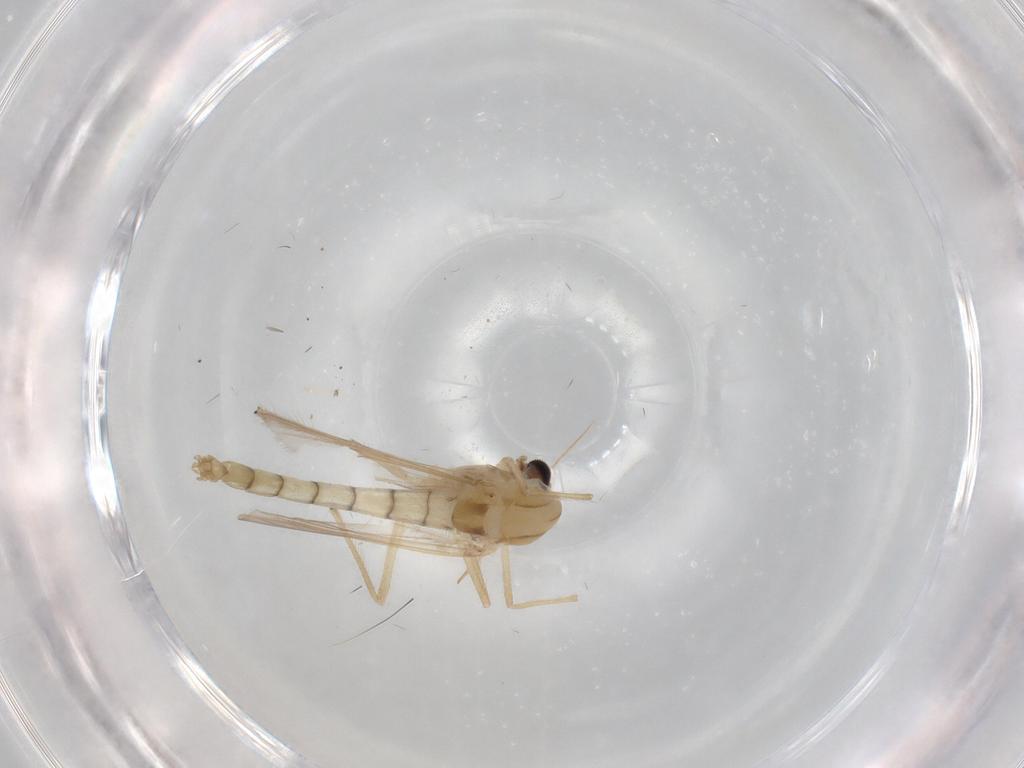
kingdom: Animalia
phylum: Arthropoda
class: Insecta
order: Diptera
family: Chironomidae
